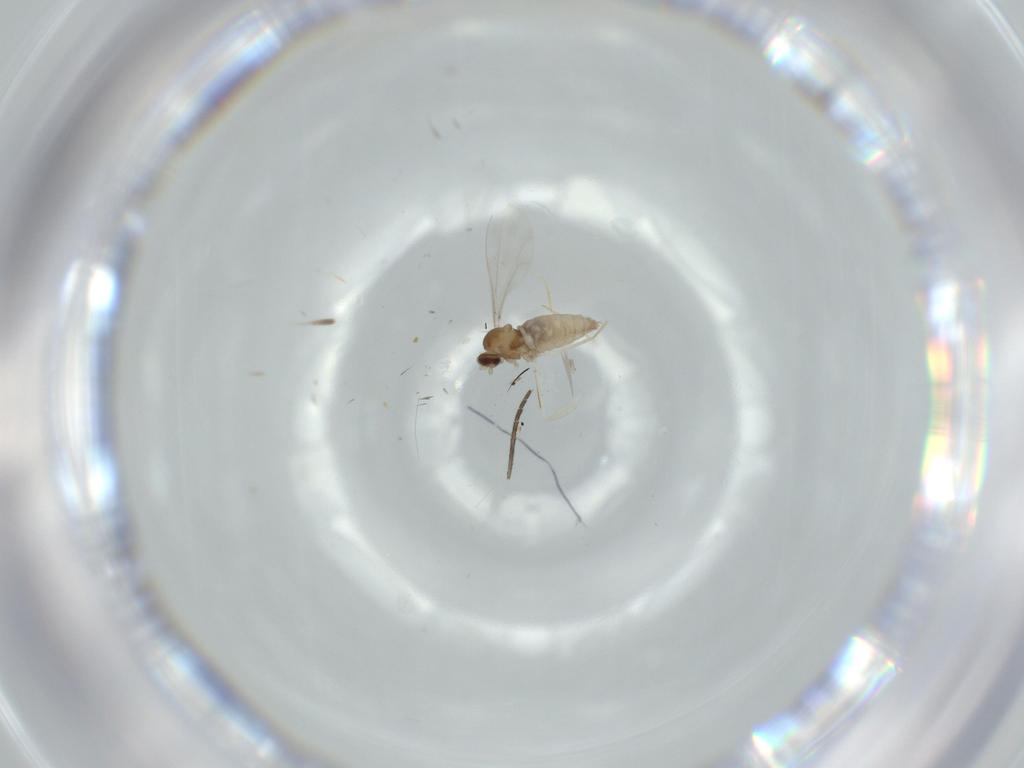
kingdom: Animalia
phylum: Arthropoda
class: Insecta
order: Diptera
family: Sciaridae
